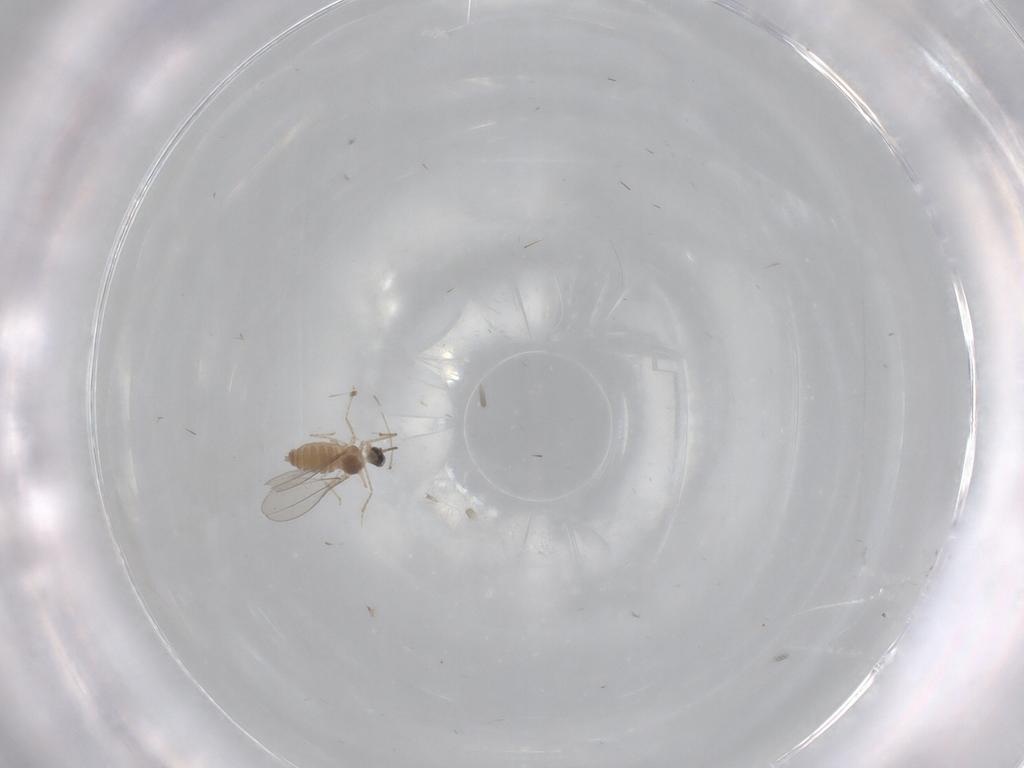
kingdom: Animalia
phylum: Arthropoda
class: Insecta
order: Diptera
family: Cecidomyiidae
